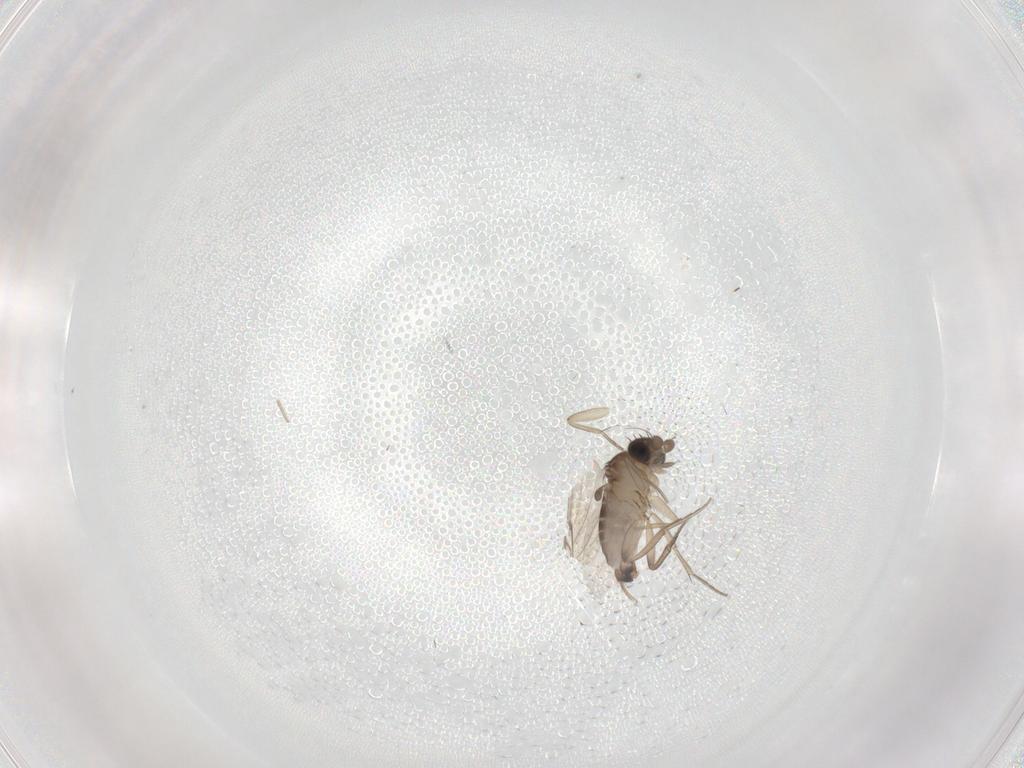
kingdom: Animalia
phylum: Arthropoda
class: Insecta
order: Diptera
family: Phoridae
